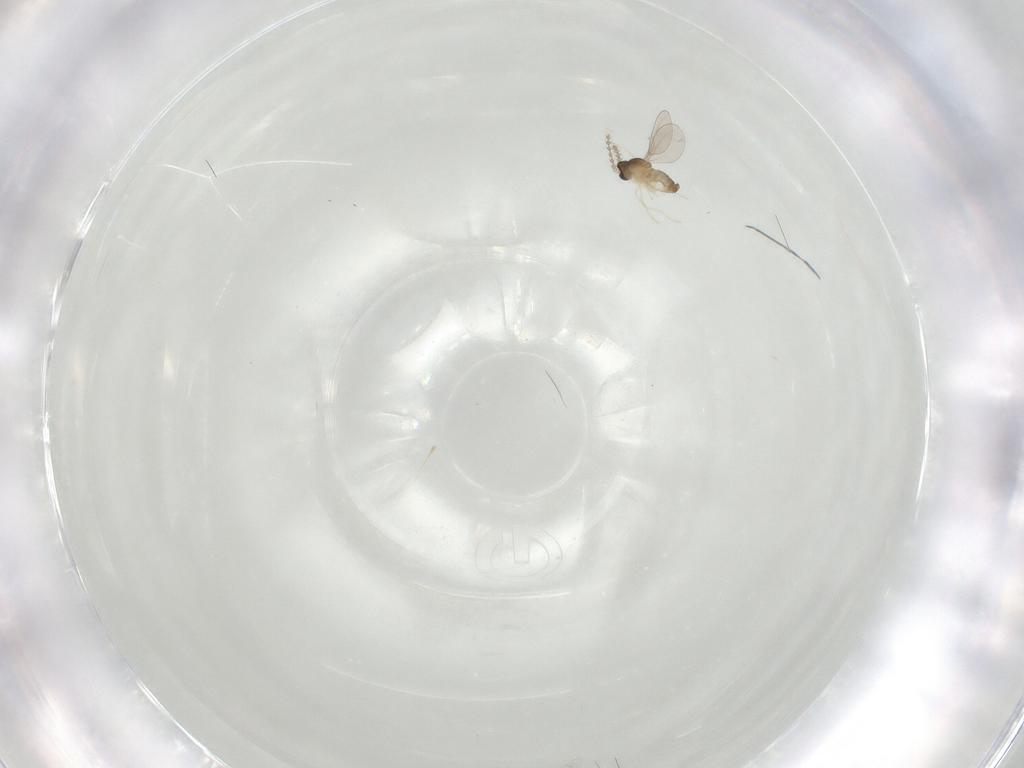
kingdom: Animalia
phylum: Arthropoda
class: Insecta
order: Diptera
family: Cecidomyiidae
